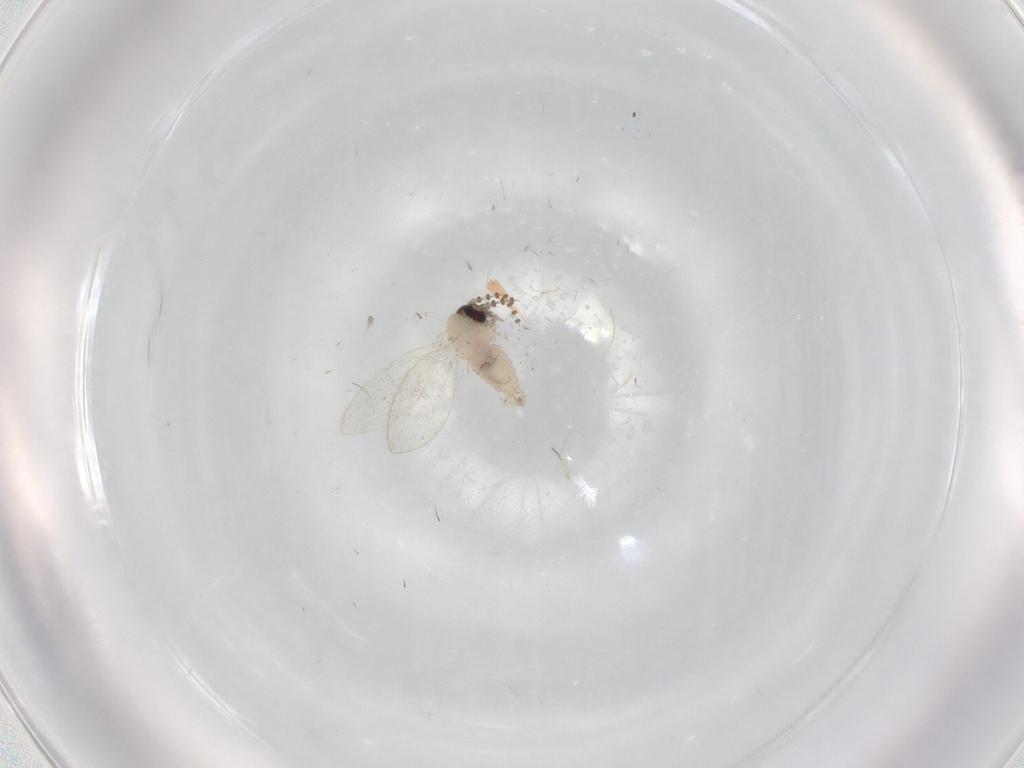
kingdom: Animalia
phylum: Arthropoda
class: Insecta
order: Diptera
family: Psychodidae
